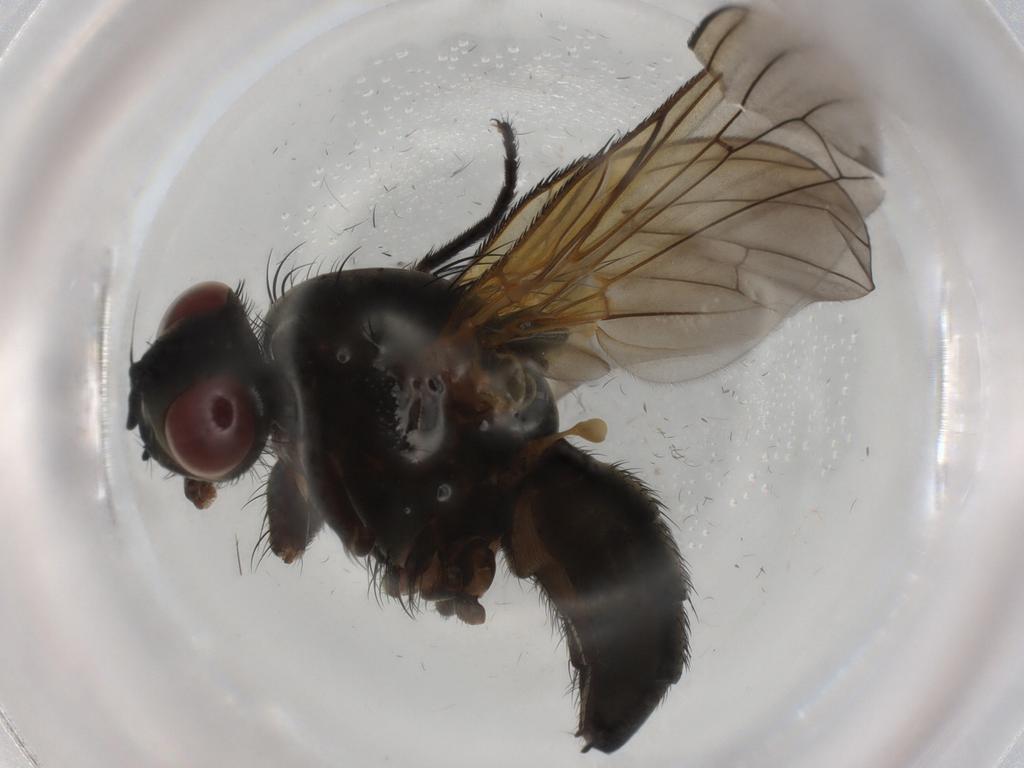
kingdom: Animalia
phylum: Arthropoda
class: Insecta
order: Diptera
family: Anthomyiidae
